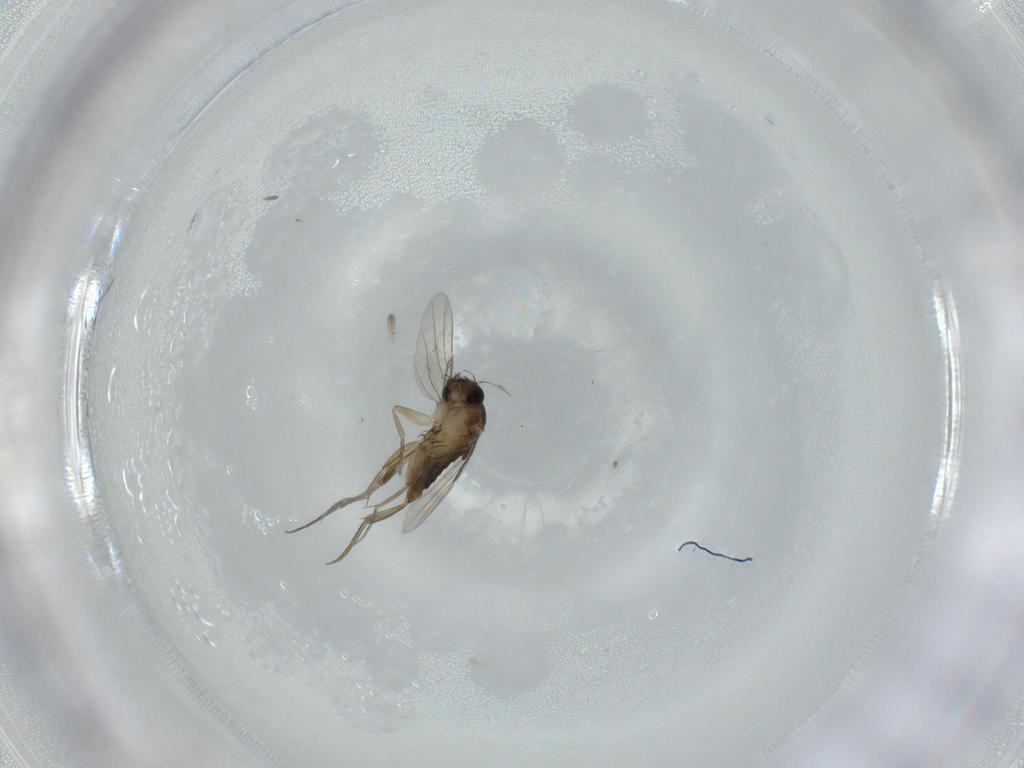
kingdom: Animalia
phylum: Arthropoda
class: Insecta
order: Diptera
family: Phoridae
